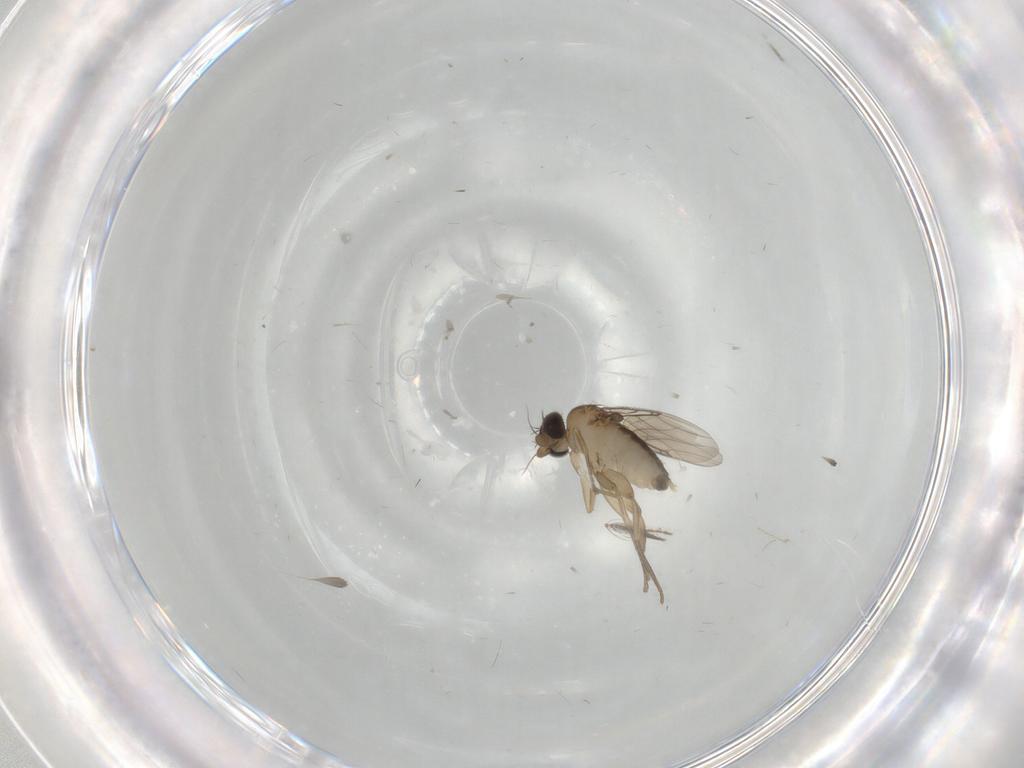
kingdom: Animalia
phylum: Arthropoda
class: Insecta
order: Diptera
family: Phoridae
